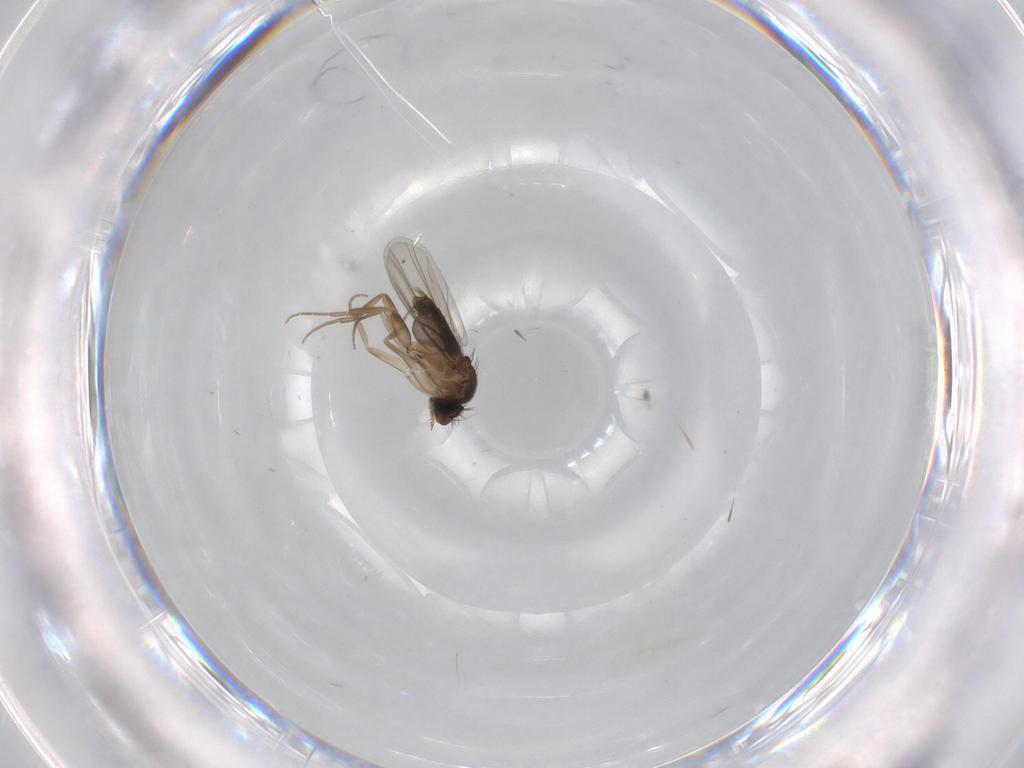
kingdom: Animalia
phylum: Arthropoda
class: Insecta
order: Diptera
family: Phoridae
